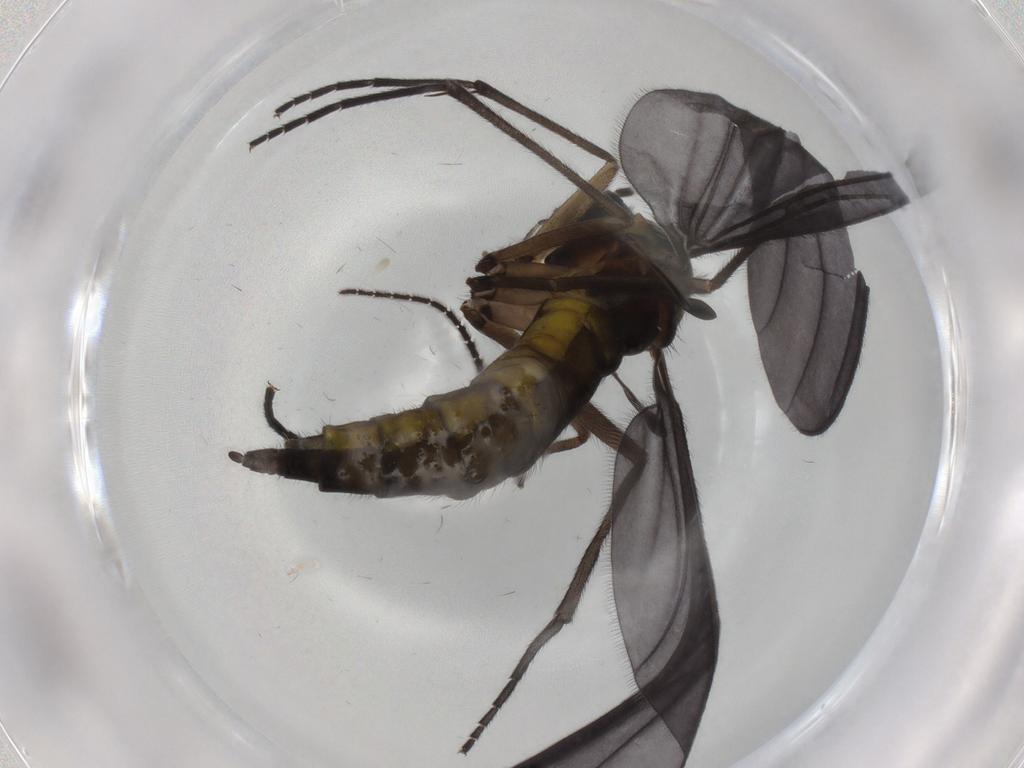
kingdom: Animalia
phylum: Arthropoda
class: Insecta
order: Diptera
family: Sciaridae
